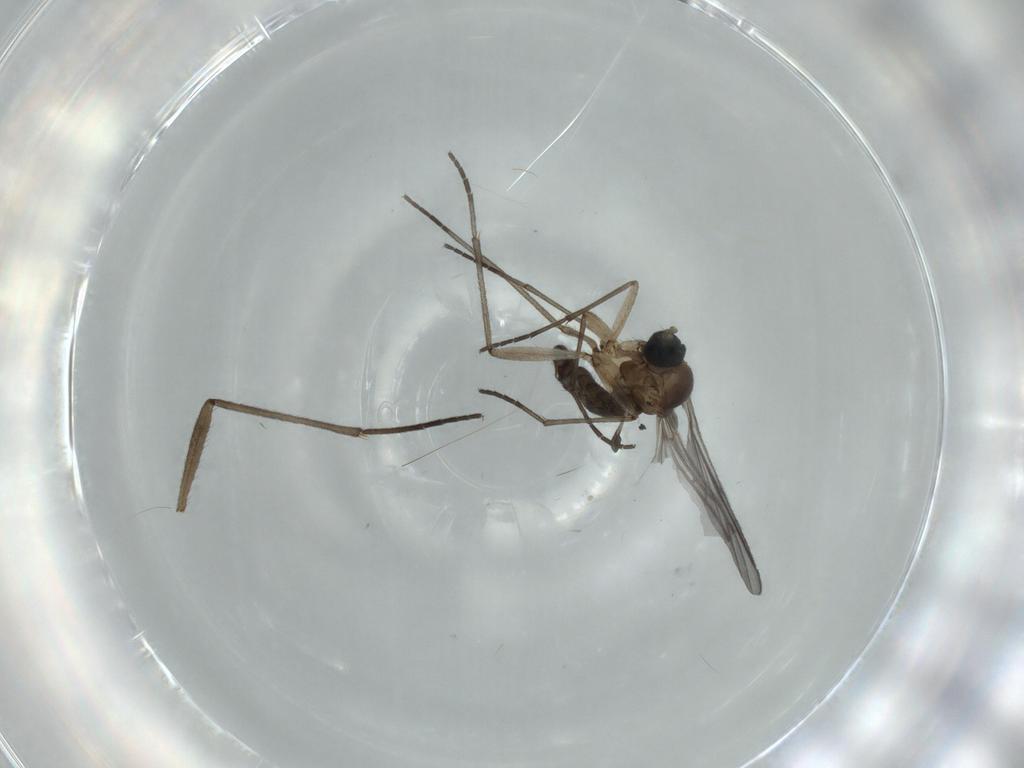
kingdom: Animalia
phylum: Arthropoda
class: Insecta
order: Diptera
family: Sciaridae
